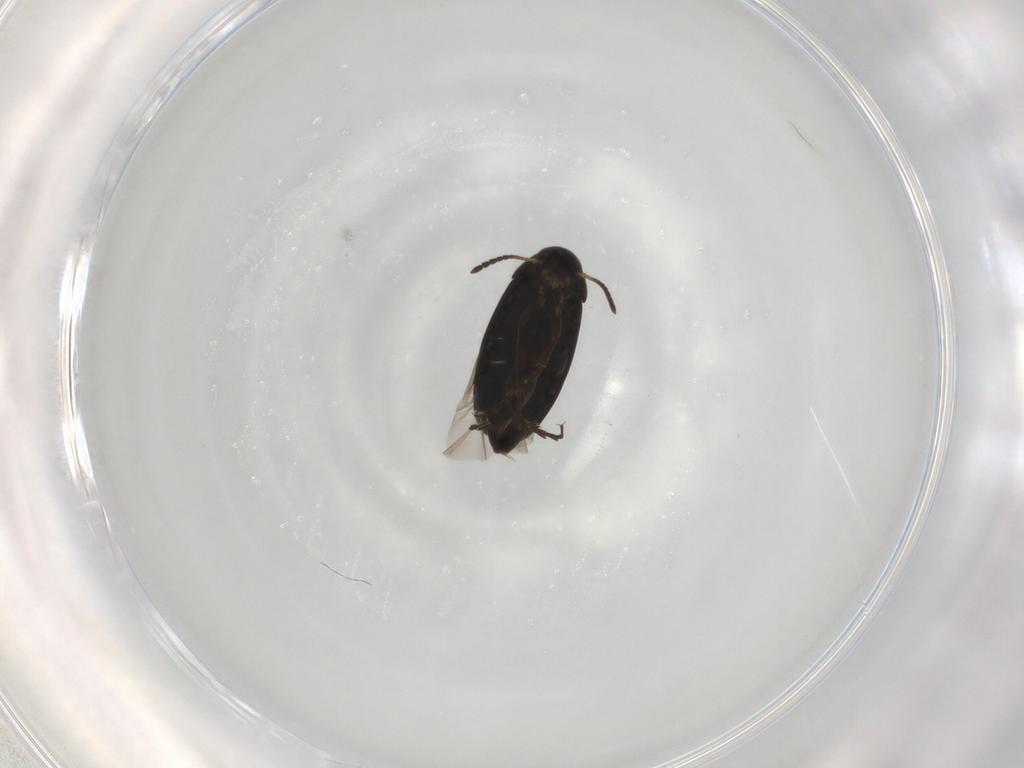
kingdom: Animalia
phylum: Arthropoda
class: Insecta
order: Coleoptera
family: Scraptiidae
